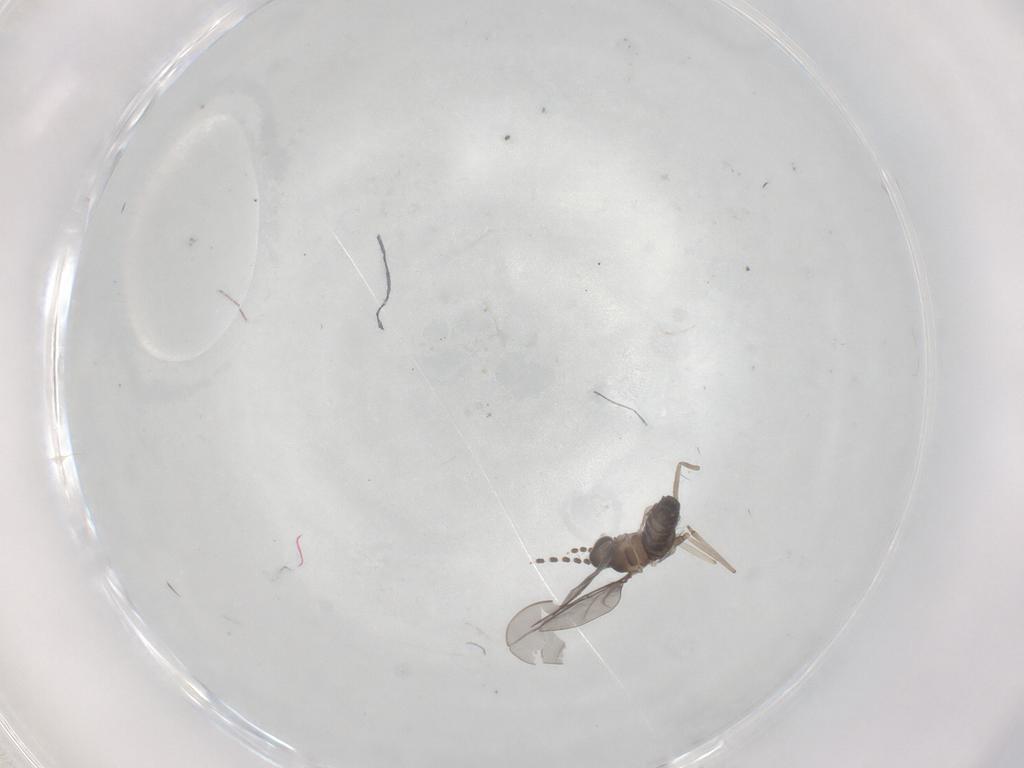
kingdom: Animalia
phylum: Arthropoda
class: Insecta
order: Diptera
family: Cecidomyiidae
